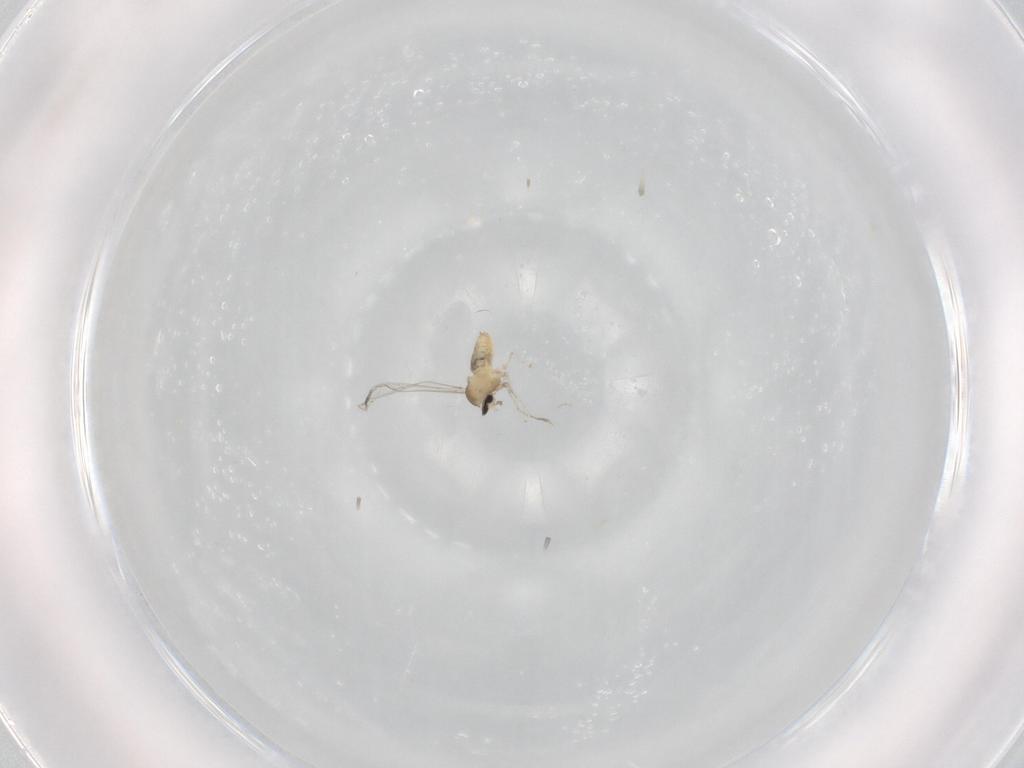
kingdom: Animalia
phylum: Arthropoda
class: Insecta
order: Diptera
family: Cecidomyiidae
